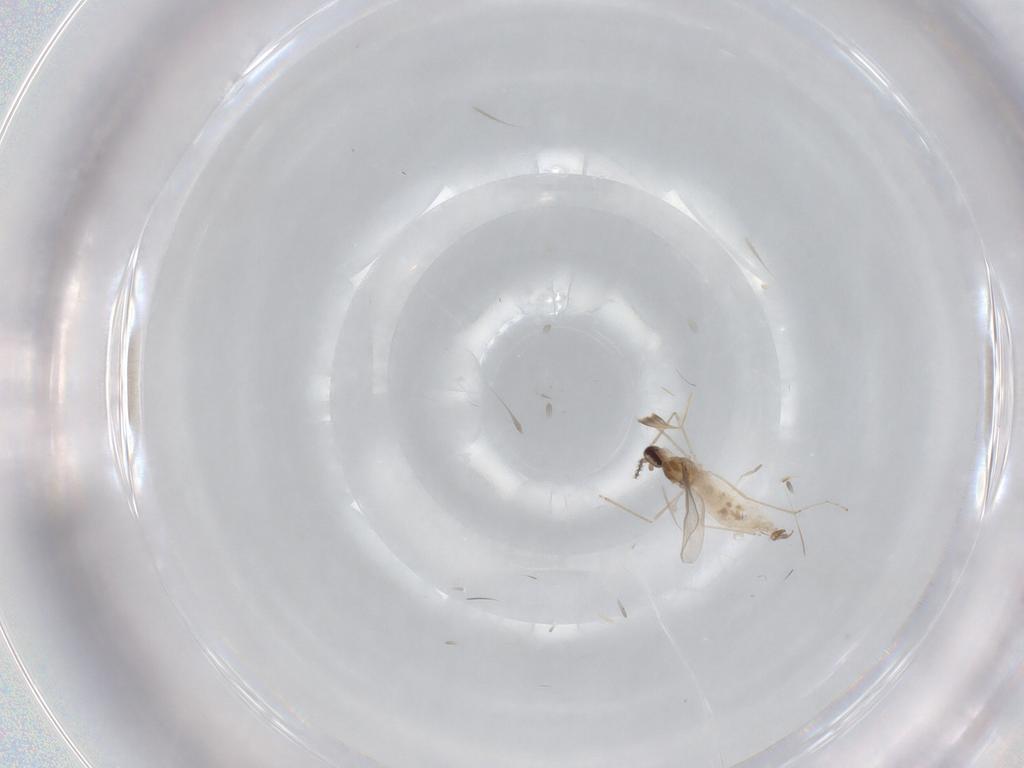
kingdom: Animalia
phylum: Arthropoda
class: Insecta
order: Diptera
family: Tabanidae
